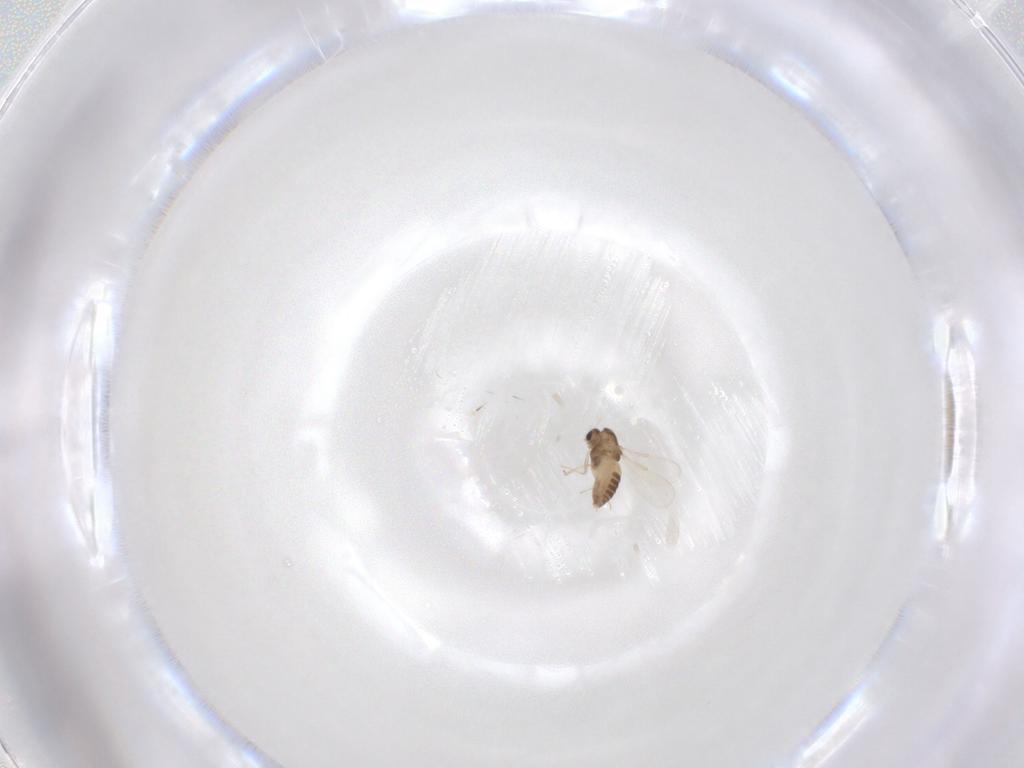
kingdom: Animalia
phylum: Arthropoda
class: Insecta
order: Diptera
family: Chironomidae
